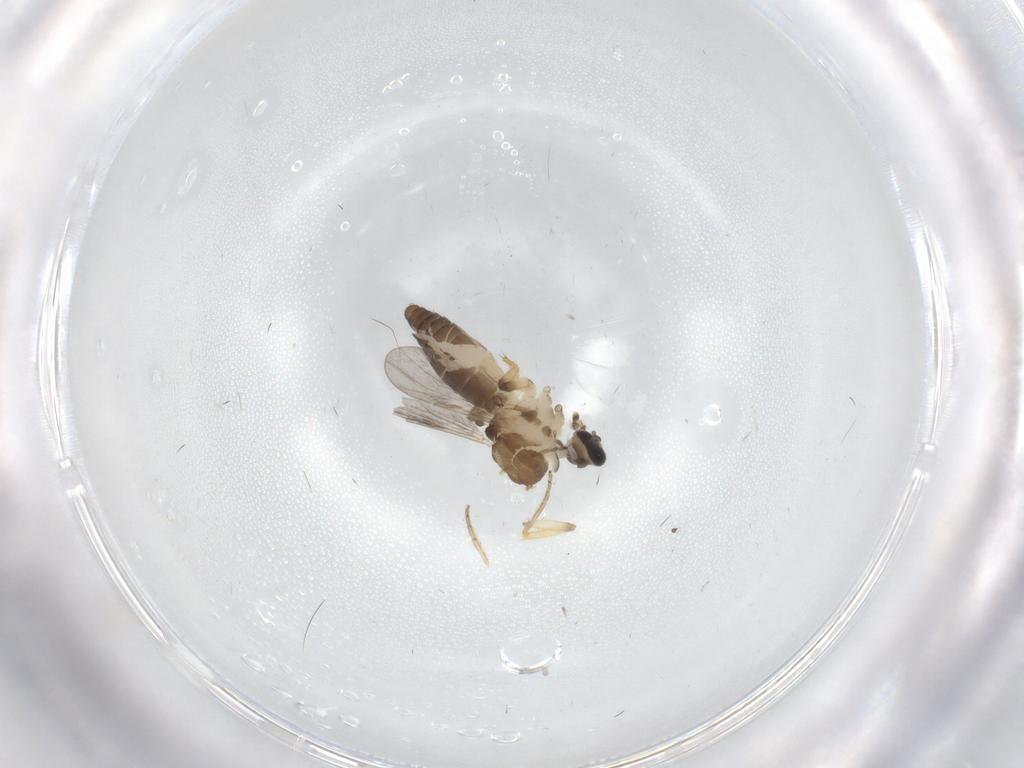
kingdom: Animalia
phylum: Arthropoda
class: Insecta
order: Diptera
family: Ceratopogonidae
